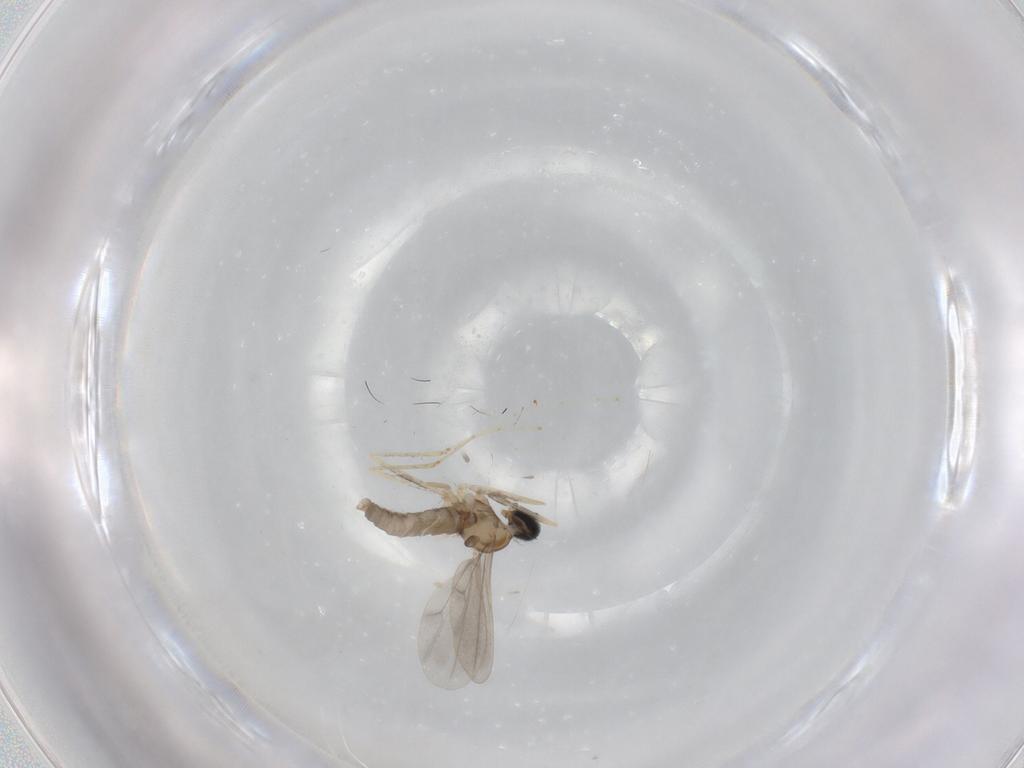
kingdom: Animalia
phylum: Arthropoda
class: Insecta
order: Diptera
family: Cecidomyiidae
